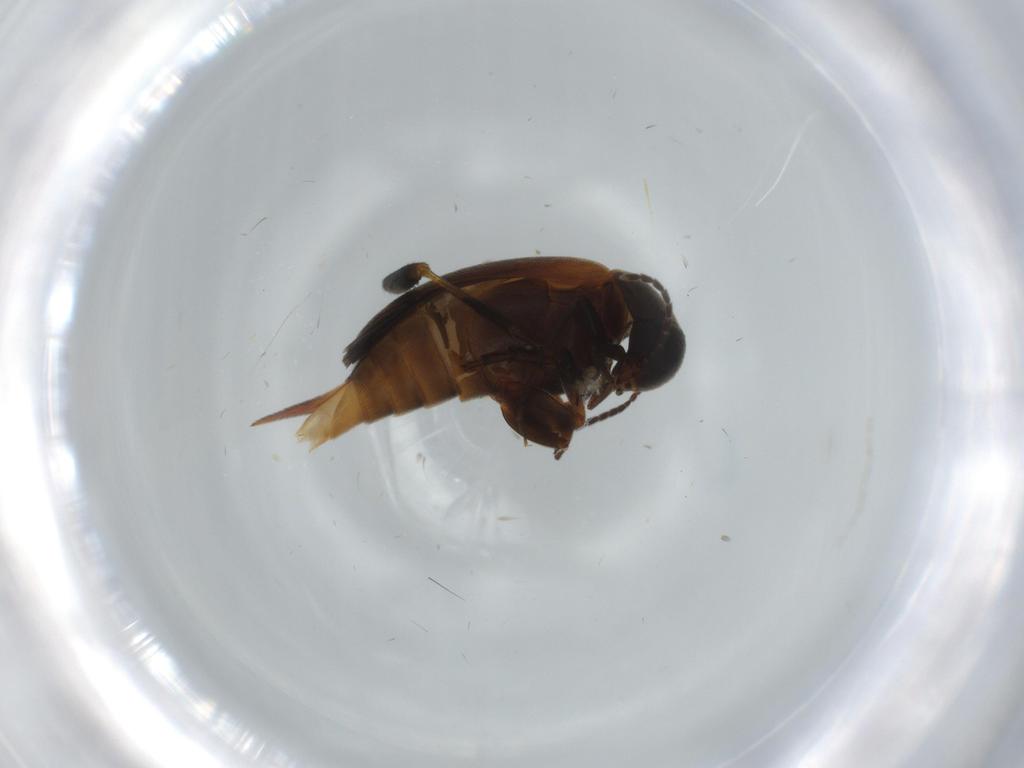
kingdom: Animalia
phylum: Arthropoda
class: Insecta
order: Coleoptera
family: Mordellidae
